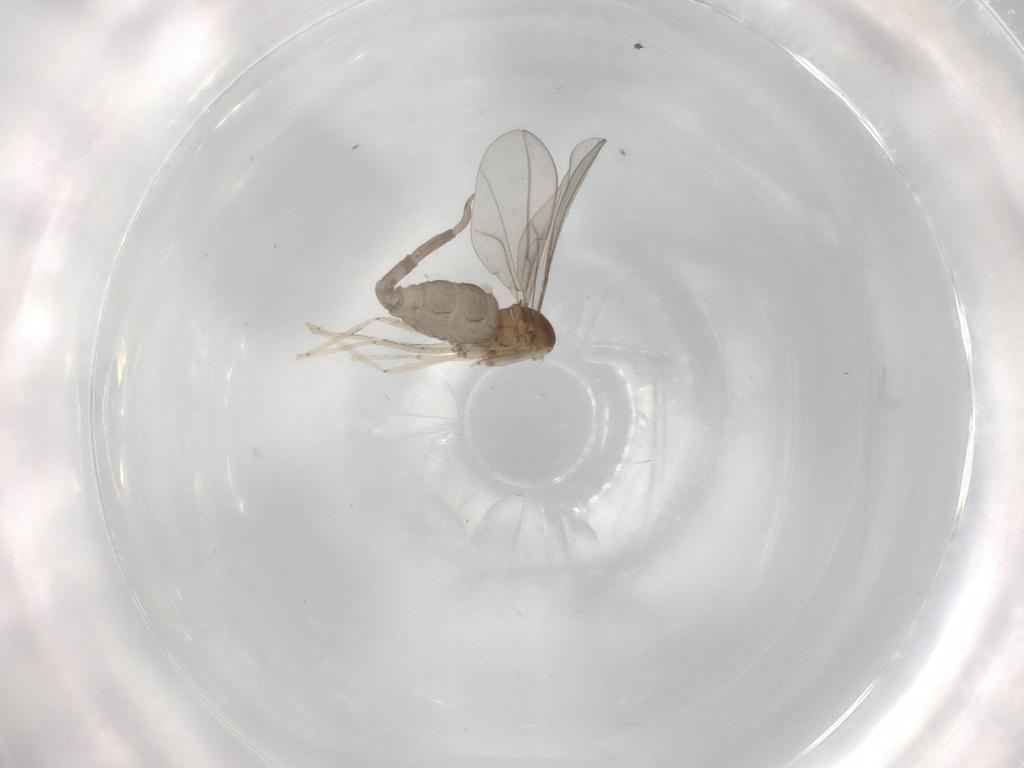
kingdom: Animalia
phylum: Arthropoda
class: Insecta
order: Diptera
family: Cecidomyiidae
